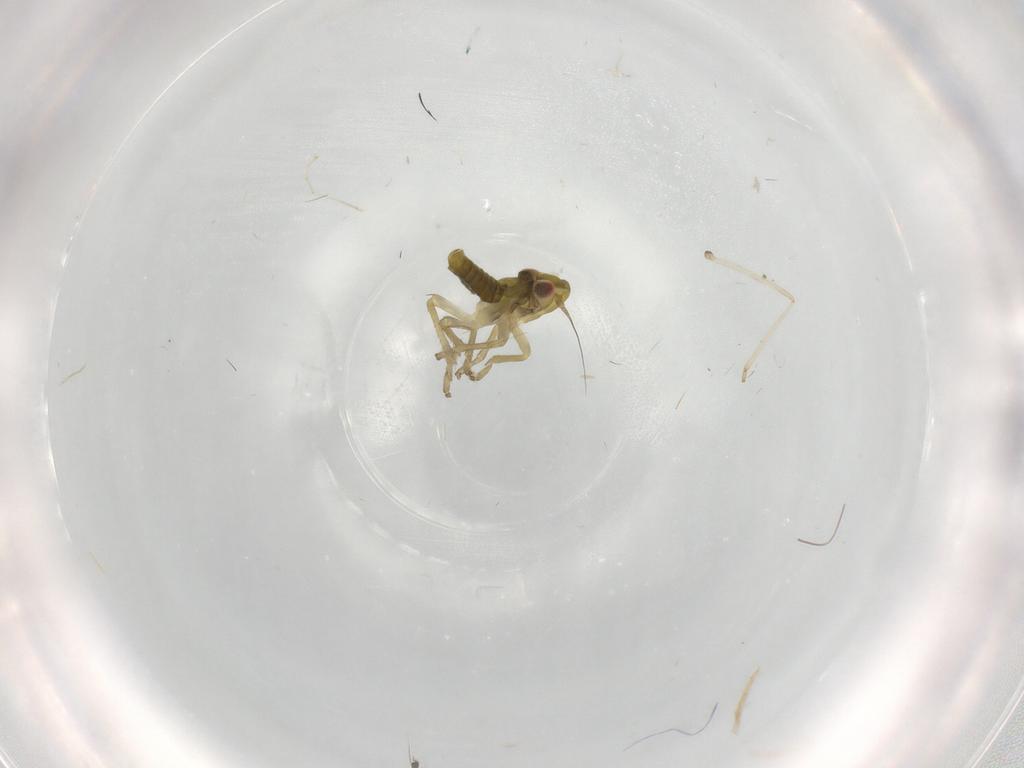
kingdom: Animalia
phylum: Arthropoda
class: Insecta
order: Hemiptera
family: Cicadellidae
